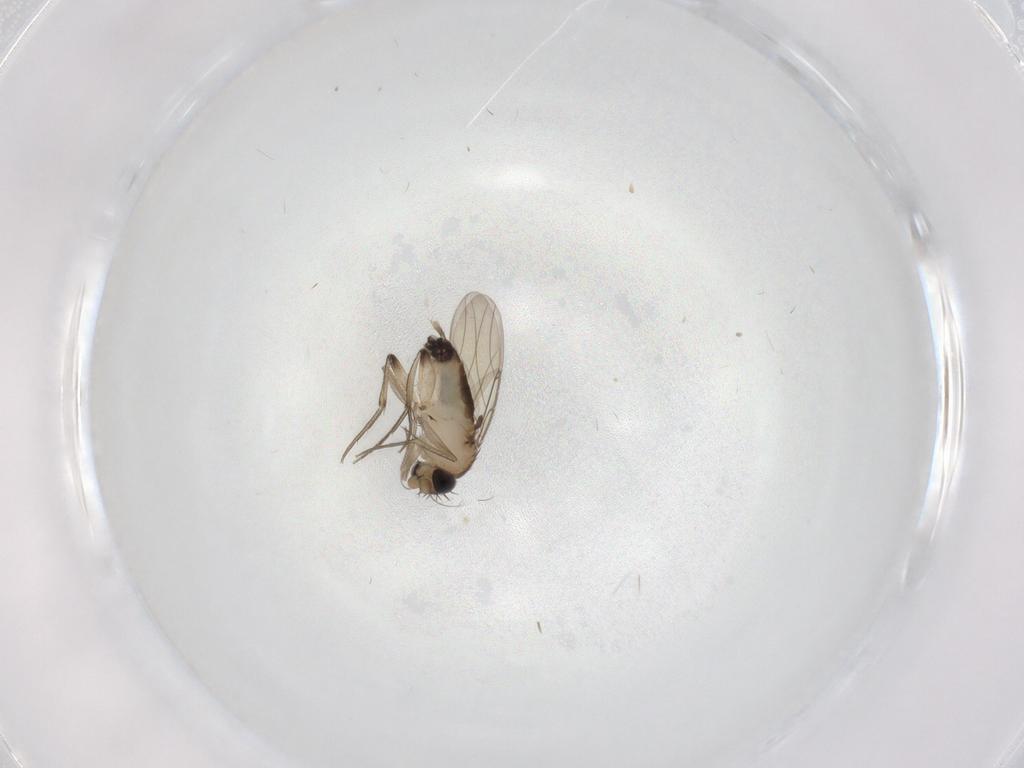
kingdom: Animalia
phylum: Arthropoda
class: Insecta
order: Diptera
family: Phoridae
